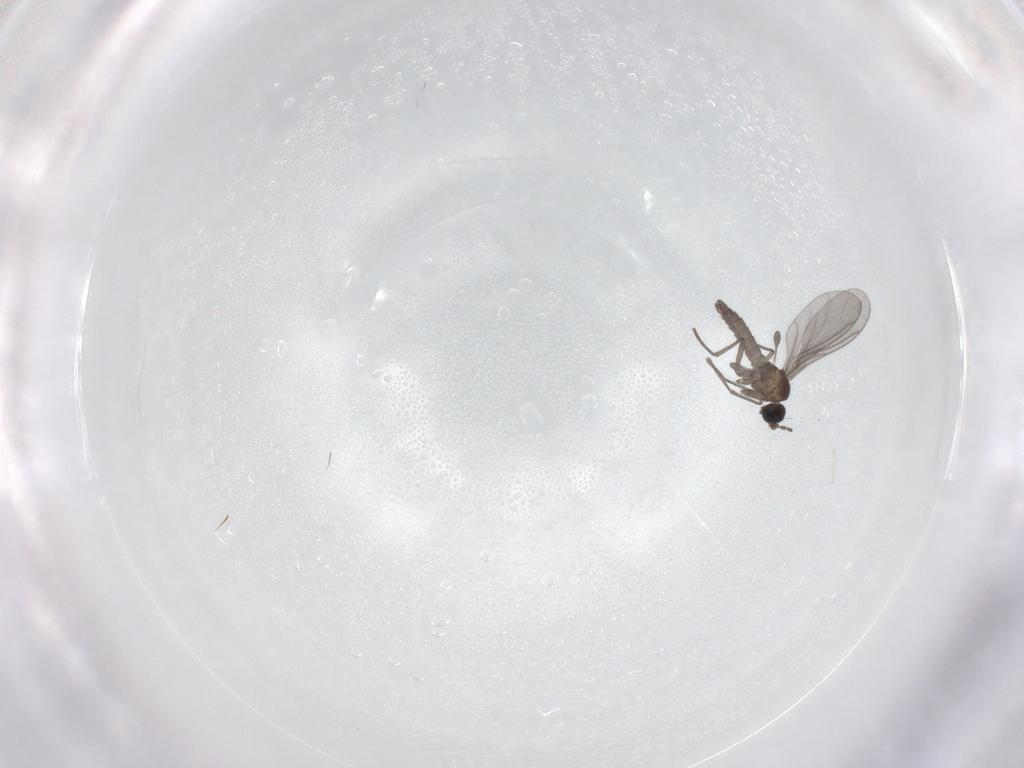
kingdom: Animalia
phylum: Arthropoda
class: Insecta
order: Diptera
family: Sciaridae
